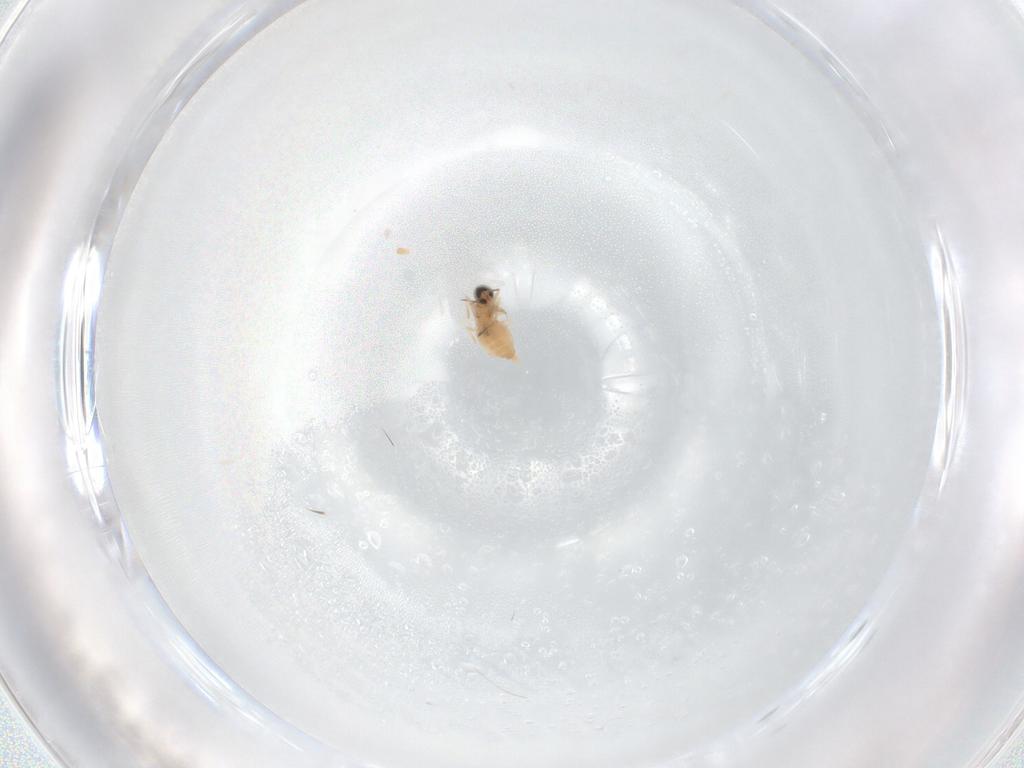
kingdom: Animalia
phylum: Arthropoda
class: Insecta
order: Diptera
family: Cecidomyiidae
